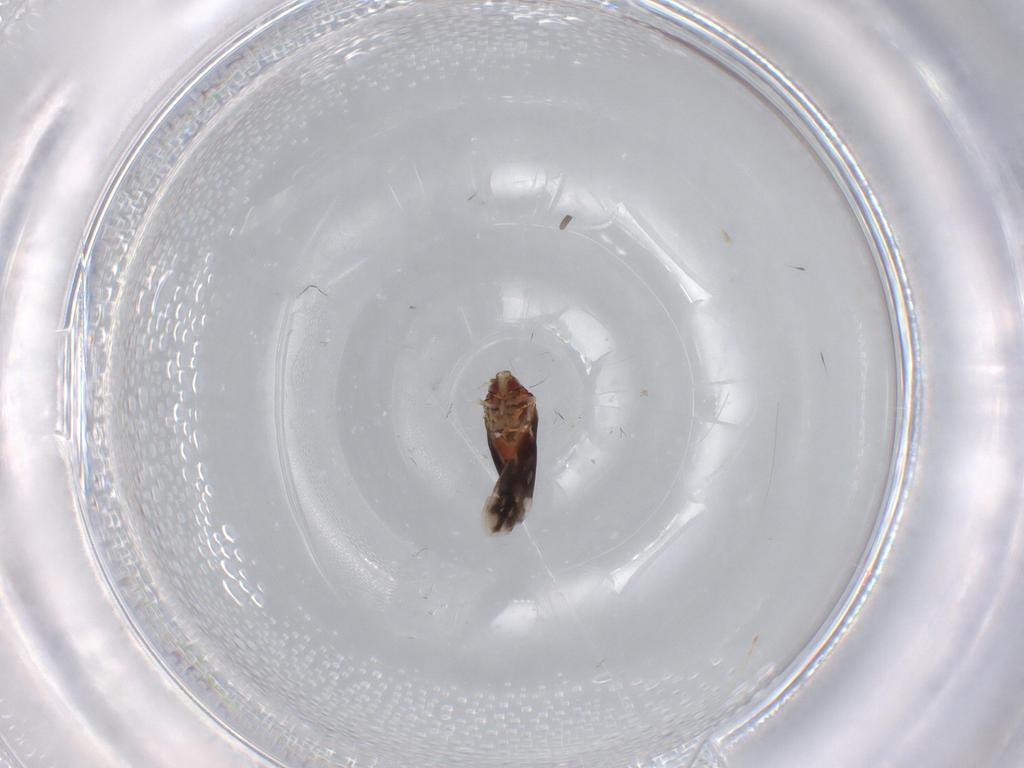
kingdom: Animalia
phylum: Arthropoda
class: Insecta
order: Hemiptera
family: Aleyrodidae
